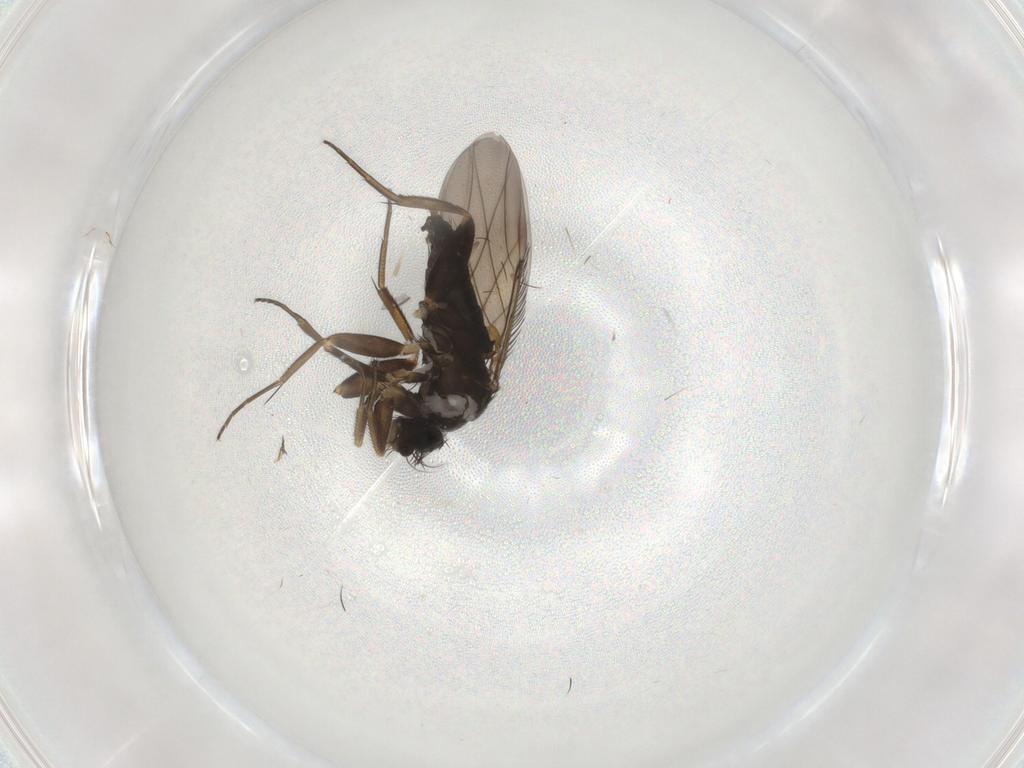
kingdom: Animalia
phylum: Arthropoda
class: Insecta
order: Diptera
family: Phoridae
